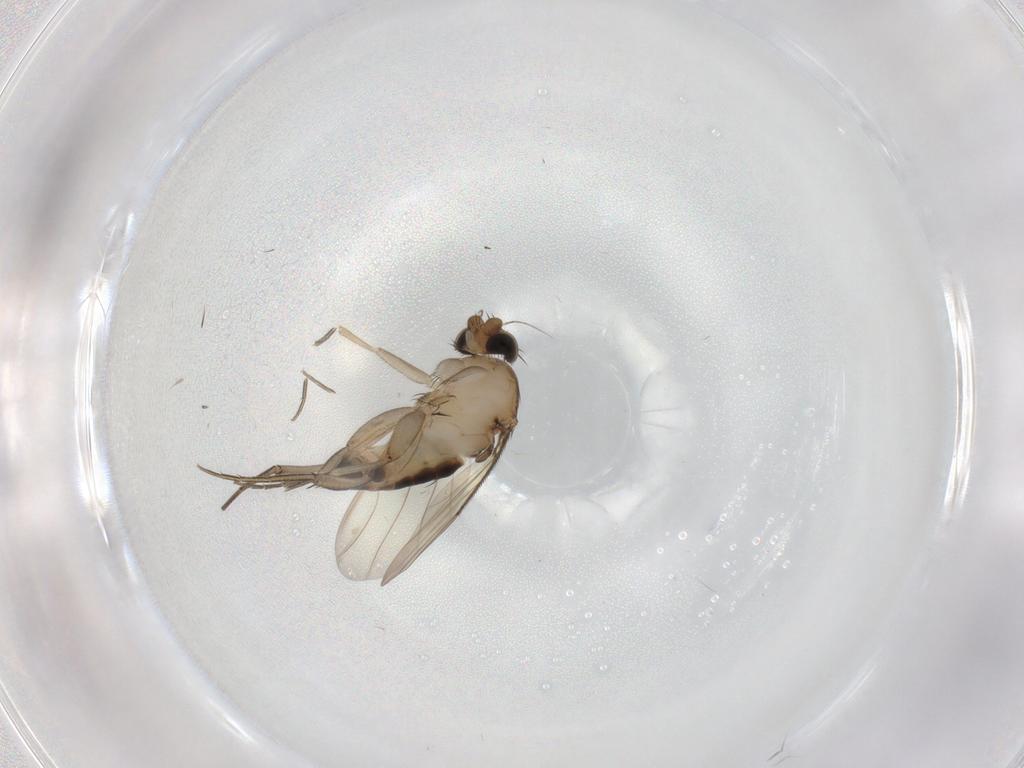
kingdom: Animalia
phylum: Arthropoda
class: Insecta
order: Diptera
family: Phoridae
